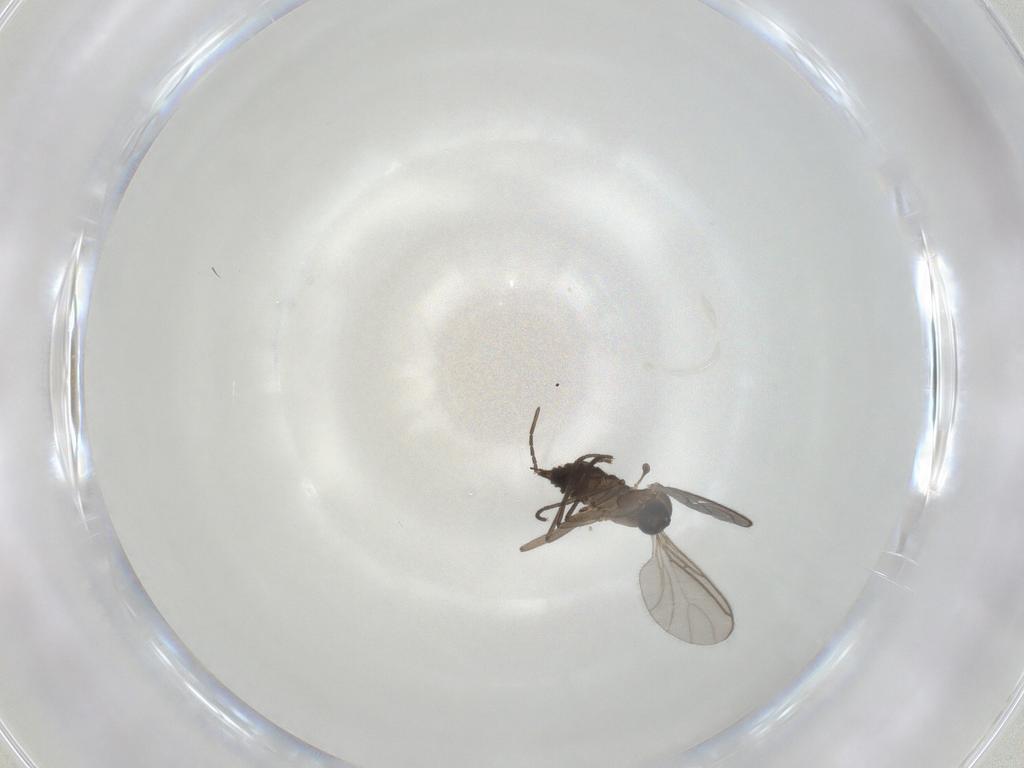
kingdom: Animalia
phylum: Arthropoda
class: Insecta
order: Diptera
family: Sciaridae
